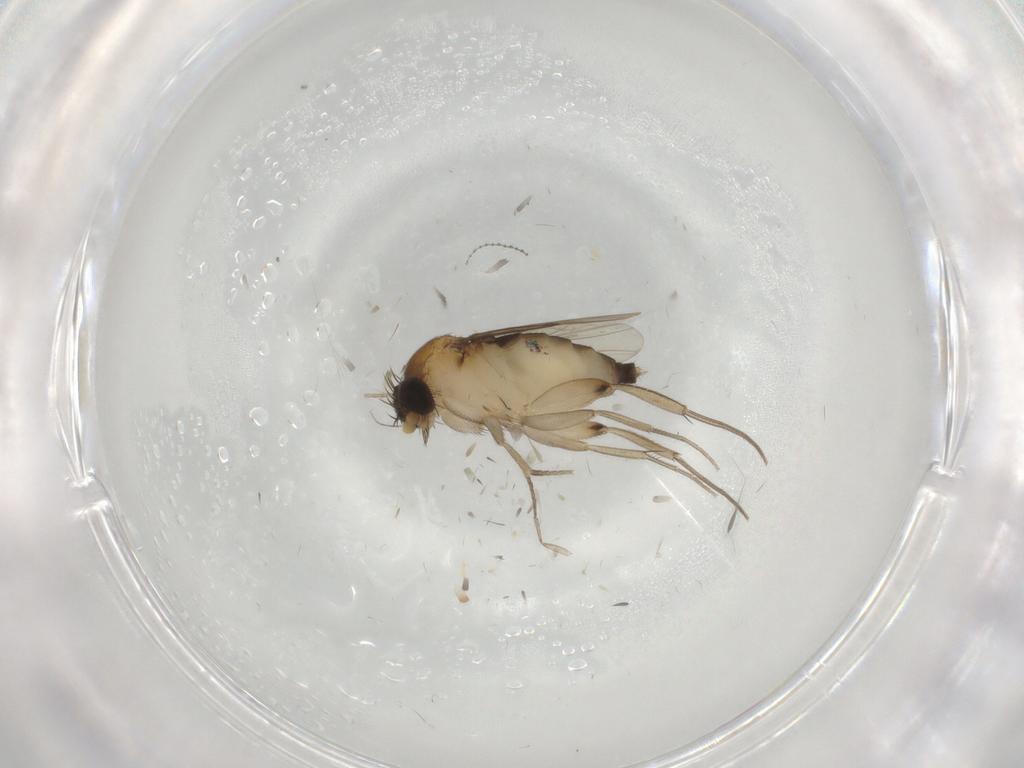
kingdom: Animalia
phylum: Arthropoda
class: Insecta
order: Diptera
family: Phoridae
